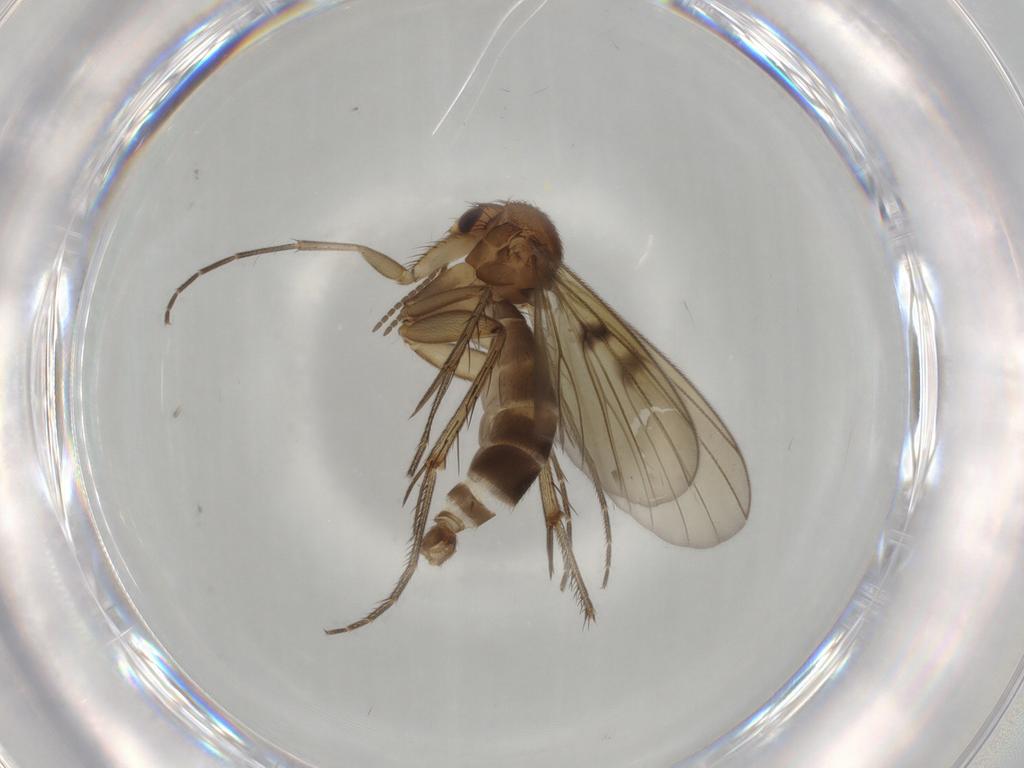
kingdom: Animalia
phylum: Arthropoda
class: Insecta
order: Diptera
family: Mycetophilidae
